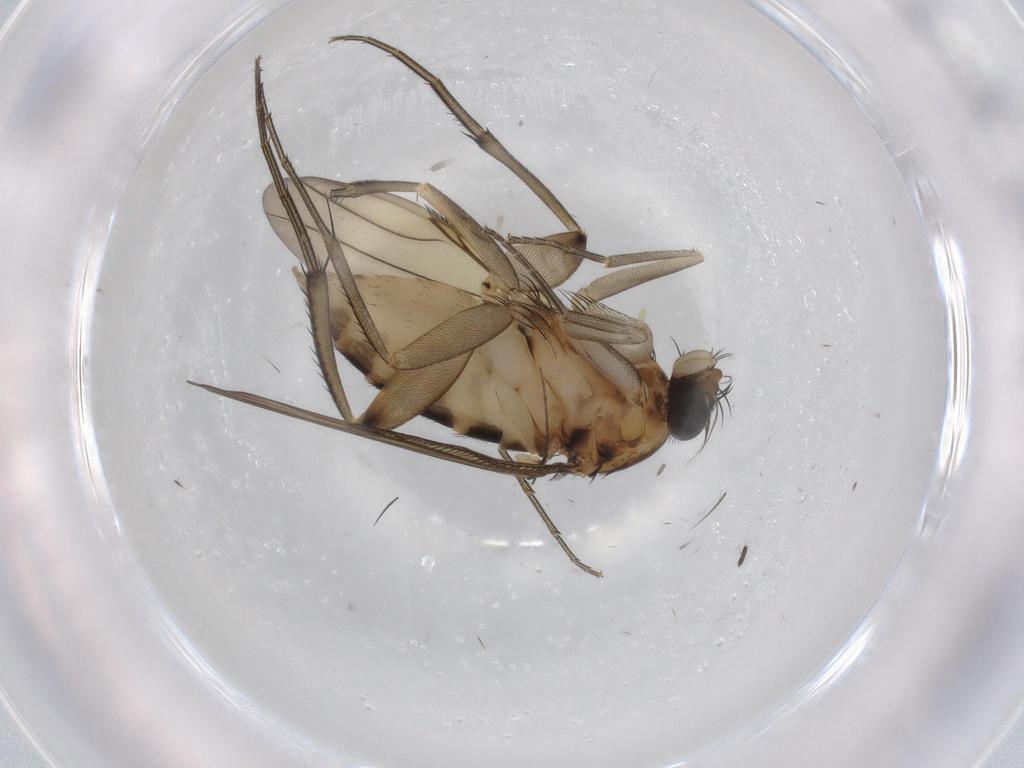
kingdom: Animalia
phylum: Arthropoda
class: Insecta
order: Diptera
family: Phoridae
